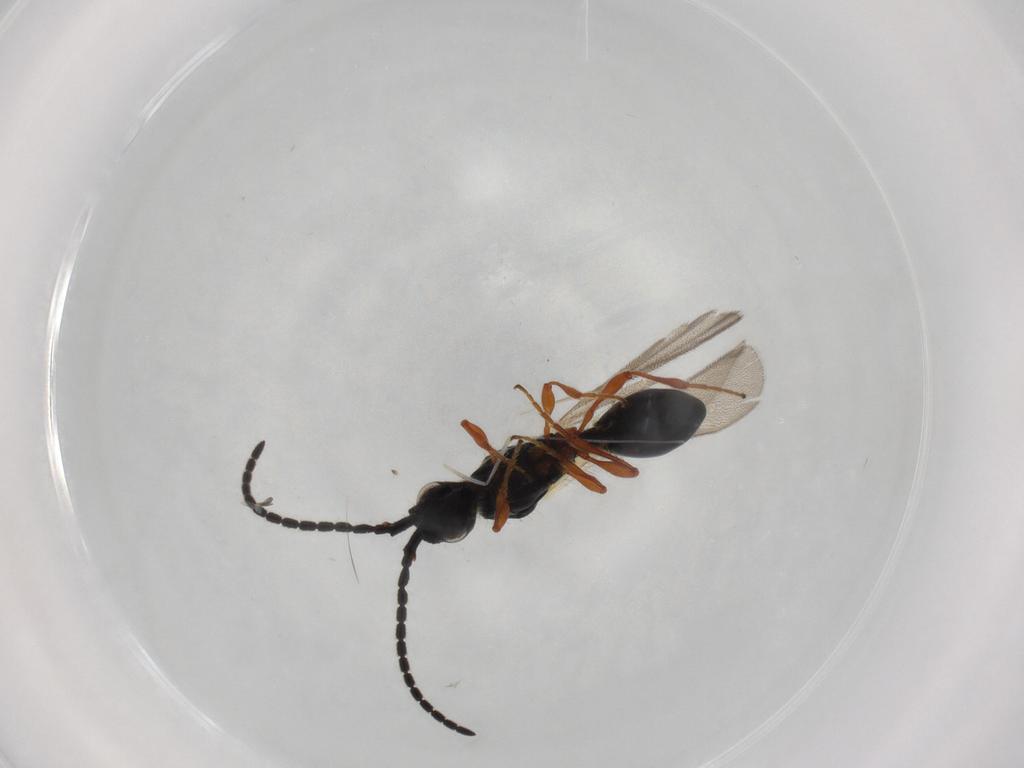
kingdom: Animalia
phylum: Arthropoda
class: Insecta
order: Hymenoptera
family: Diapriidae
